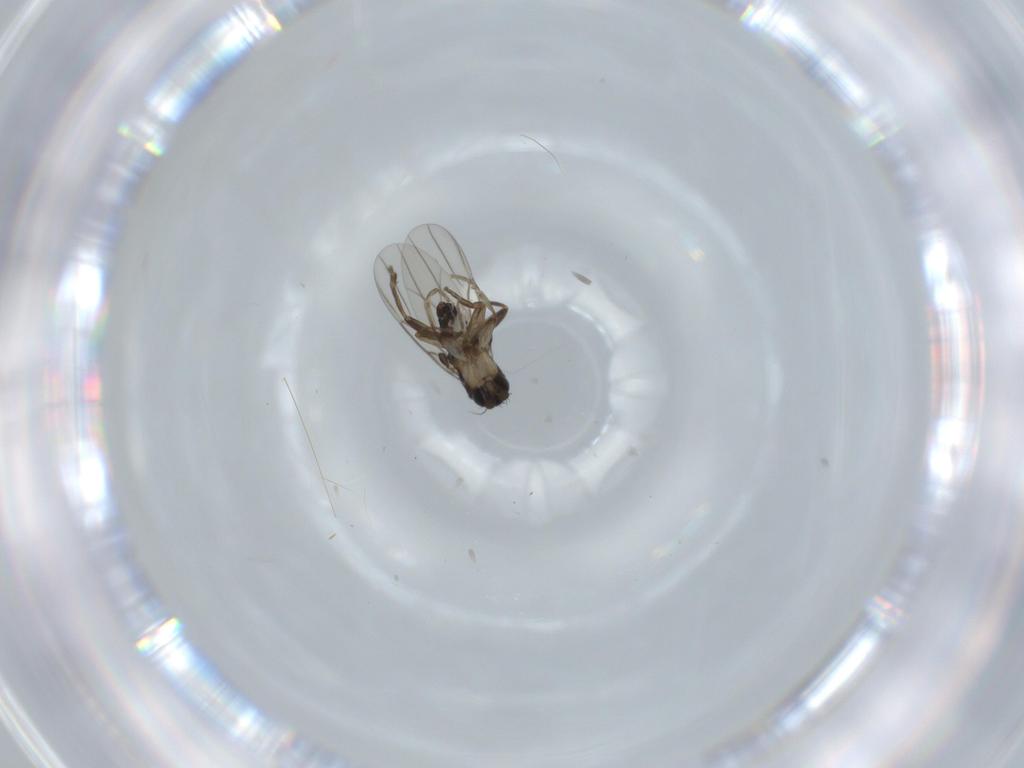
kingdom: Animalia
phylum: Arthropoda
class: Insecta
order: Diptera
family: Phoridae
